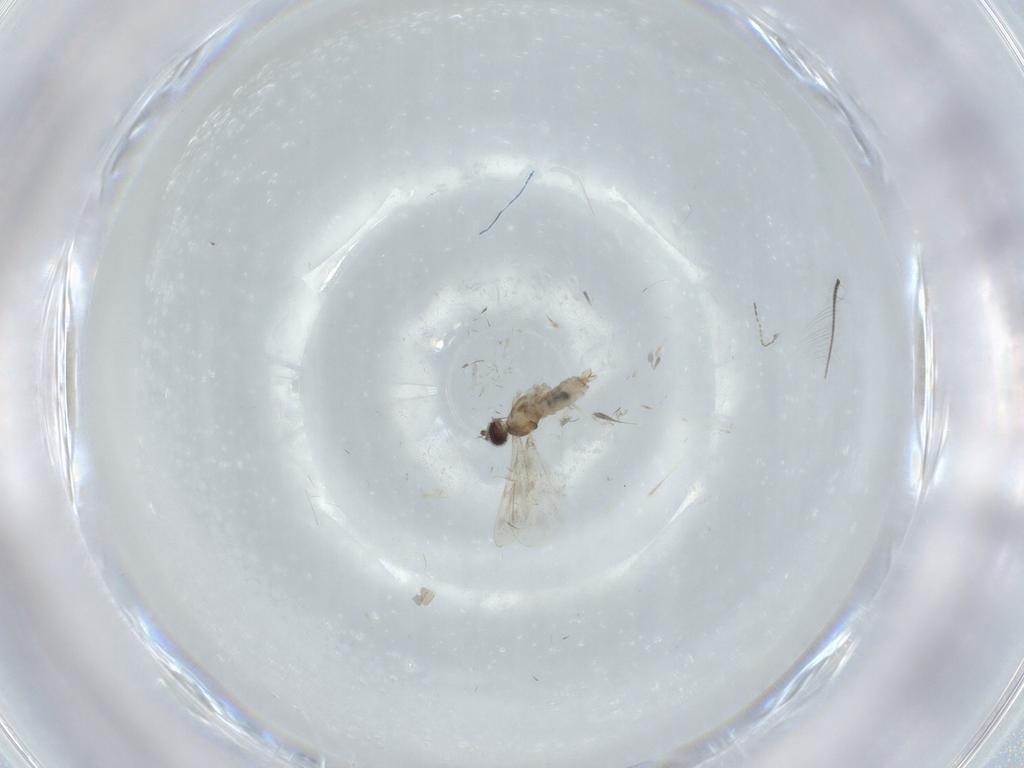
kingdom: Animalia
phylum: Arthropoda
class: Insecta
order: Diptera
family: Cecidomyiidae
